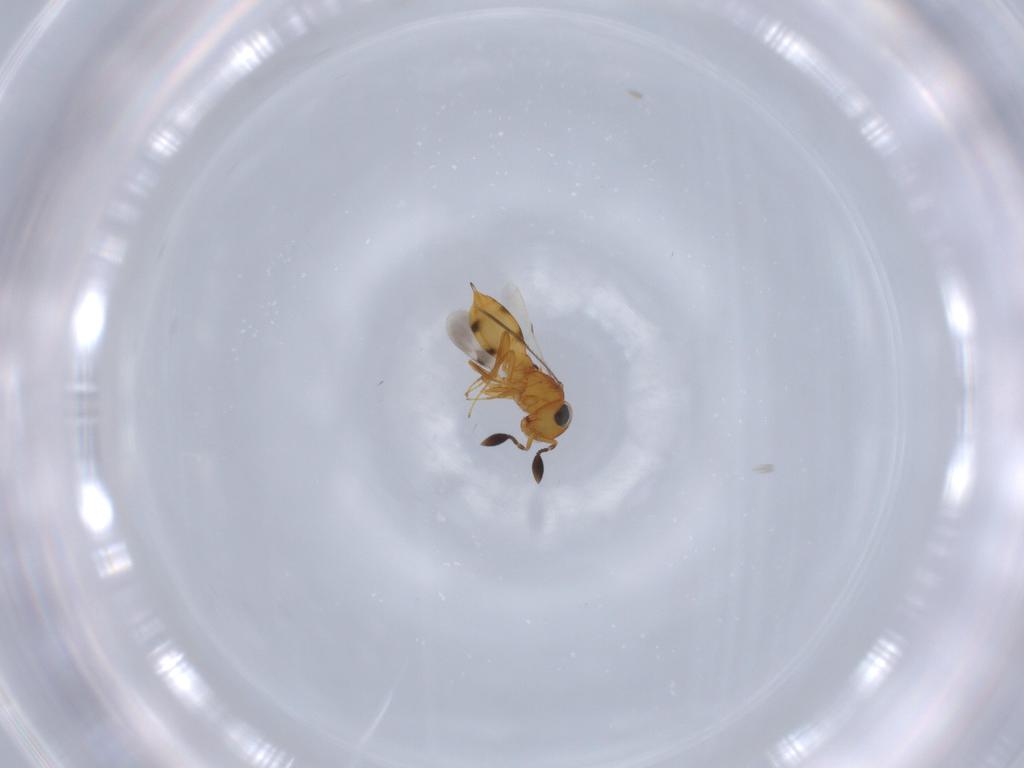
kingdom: Animalia
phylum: Arthropoda
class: Insecta
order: Hymenoptera
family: Scelionidae
